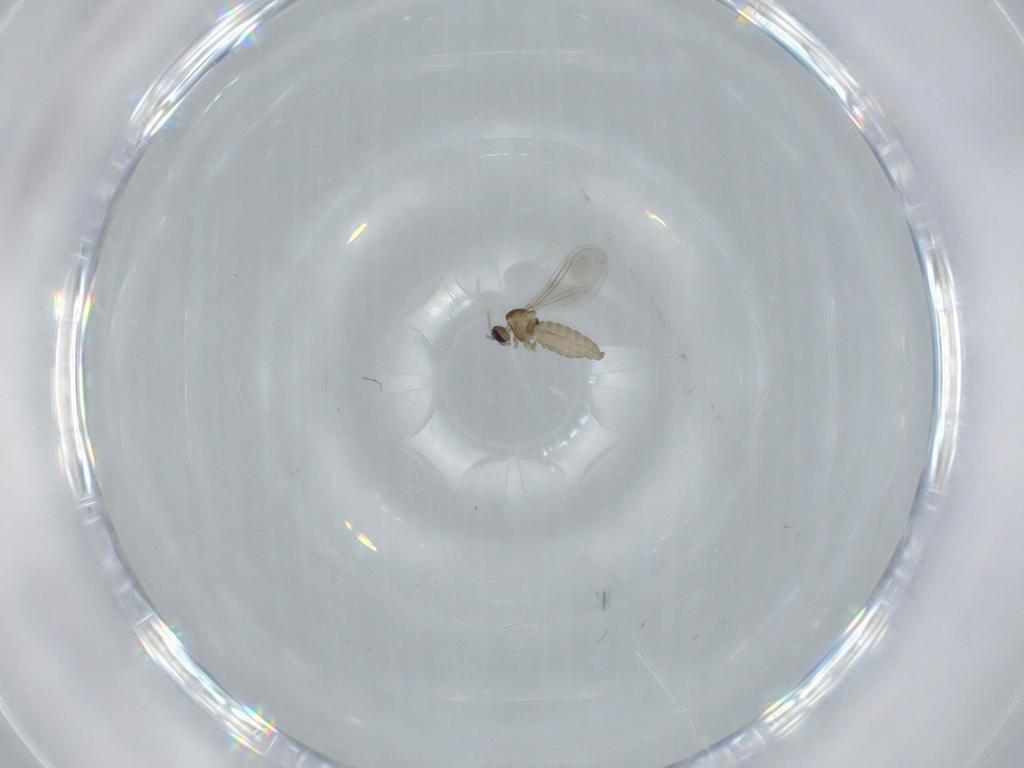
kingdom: Animalia
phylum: Arthropoda
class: Insecta
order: Diptera
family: Cecidomyiidae
